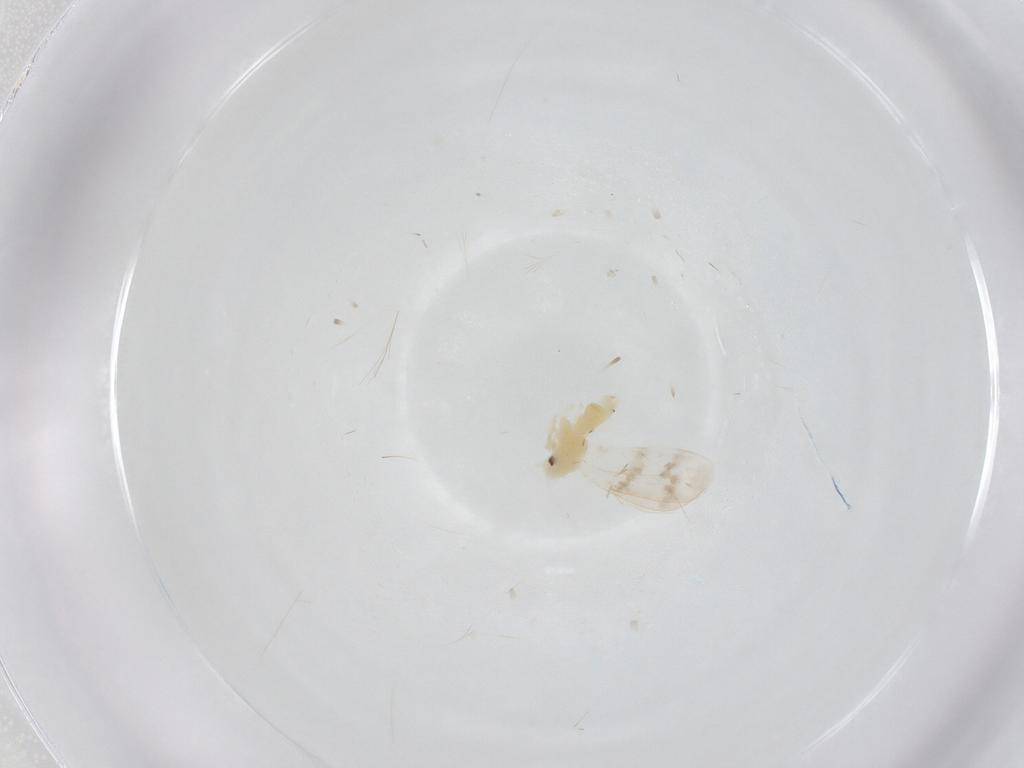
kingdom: Animalia
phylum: Arthropoda
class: Insecta
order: Hemiptera
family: Aleyrodidae
